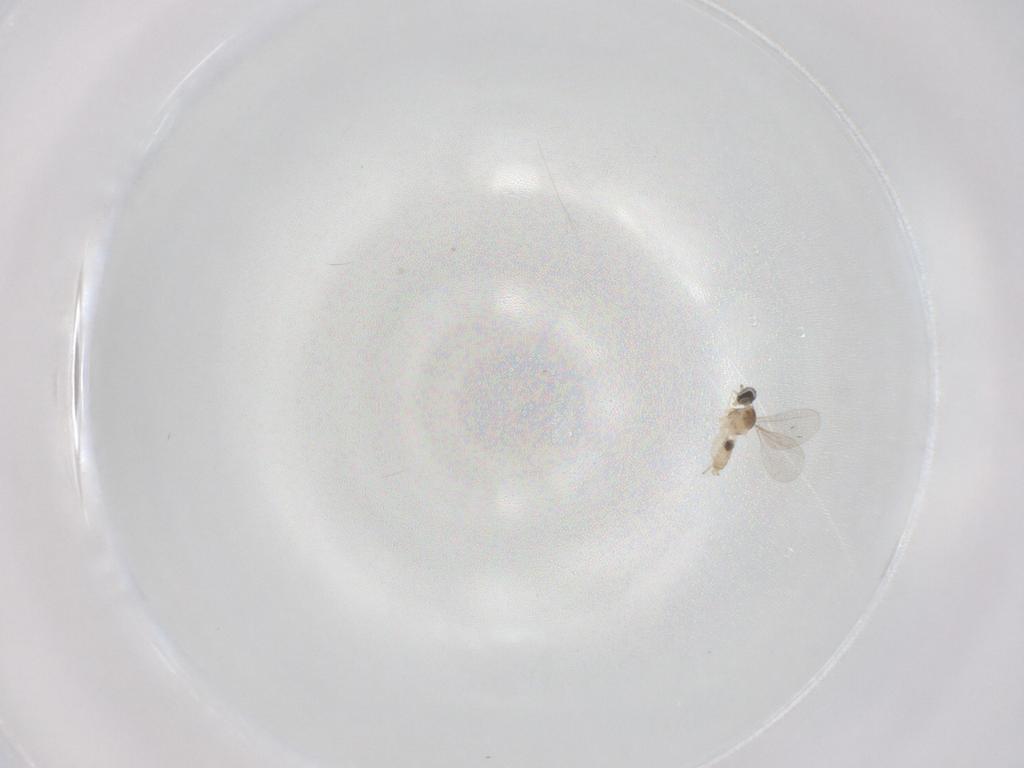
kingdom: Animalia
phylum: Arthropoda
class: Insecta
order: Diptera
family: Cecidomyiidae
